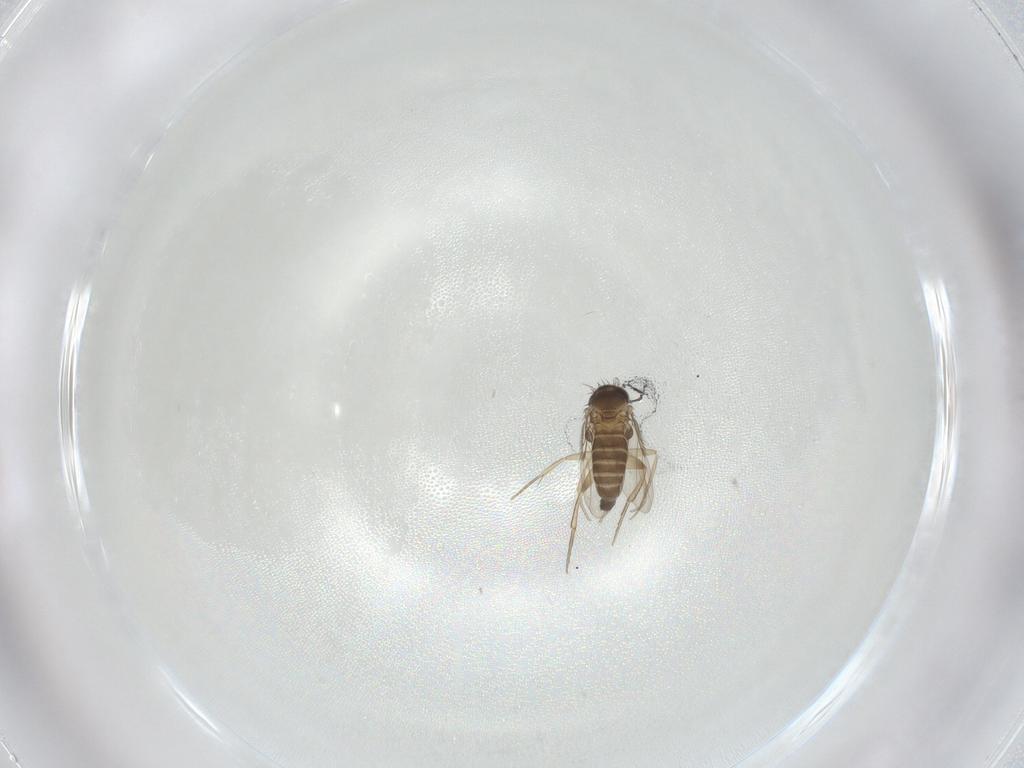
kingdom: Animalia
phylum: Arthropoda
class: Insecta
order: Diptera
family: Phoridae
